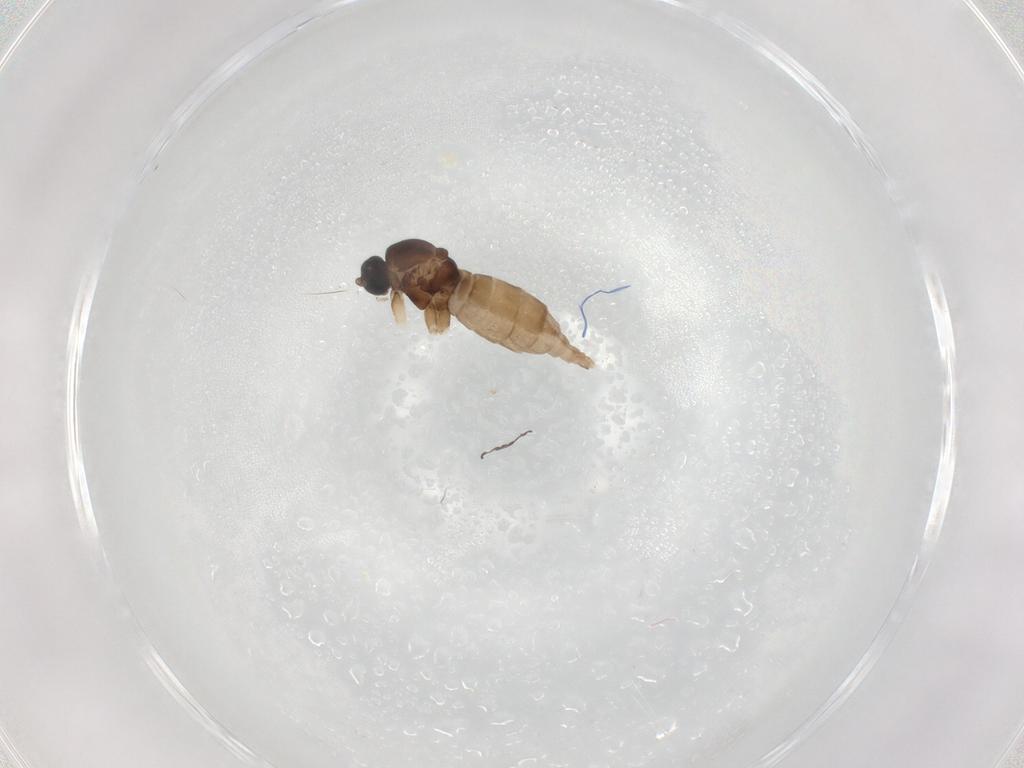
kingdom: Animalia
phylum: Arthropoda
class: Insecta
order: Diptera
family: Sciaridae
